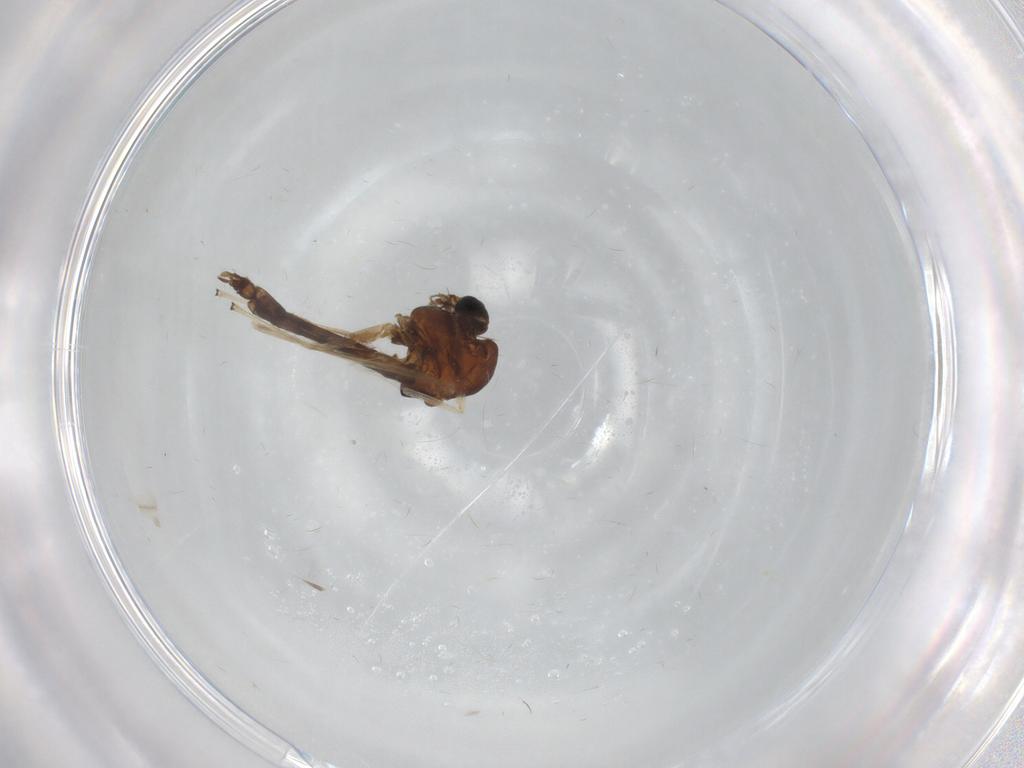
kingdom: Animalia
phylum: Arthropoda
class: Insecta
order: Diptera
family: Chironomidae
